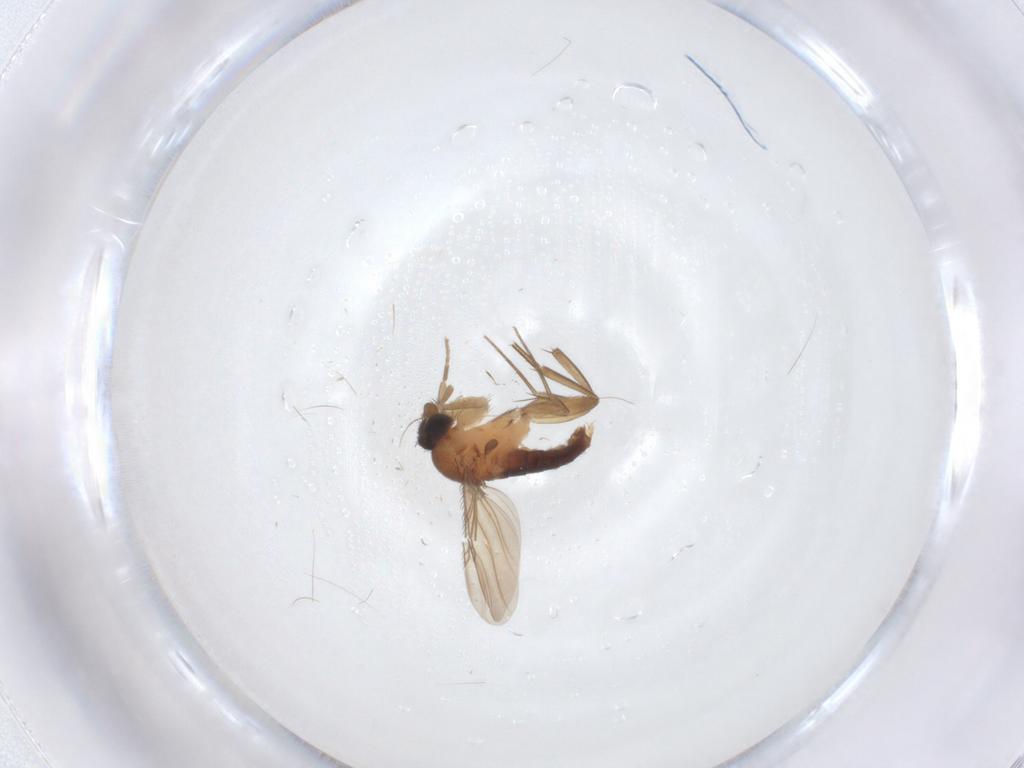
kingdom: Animalia
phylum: Arthropoda
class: Insecta
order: Diptera
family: Phoridae
